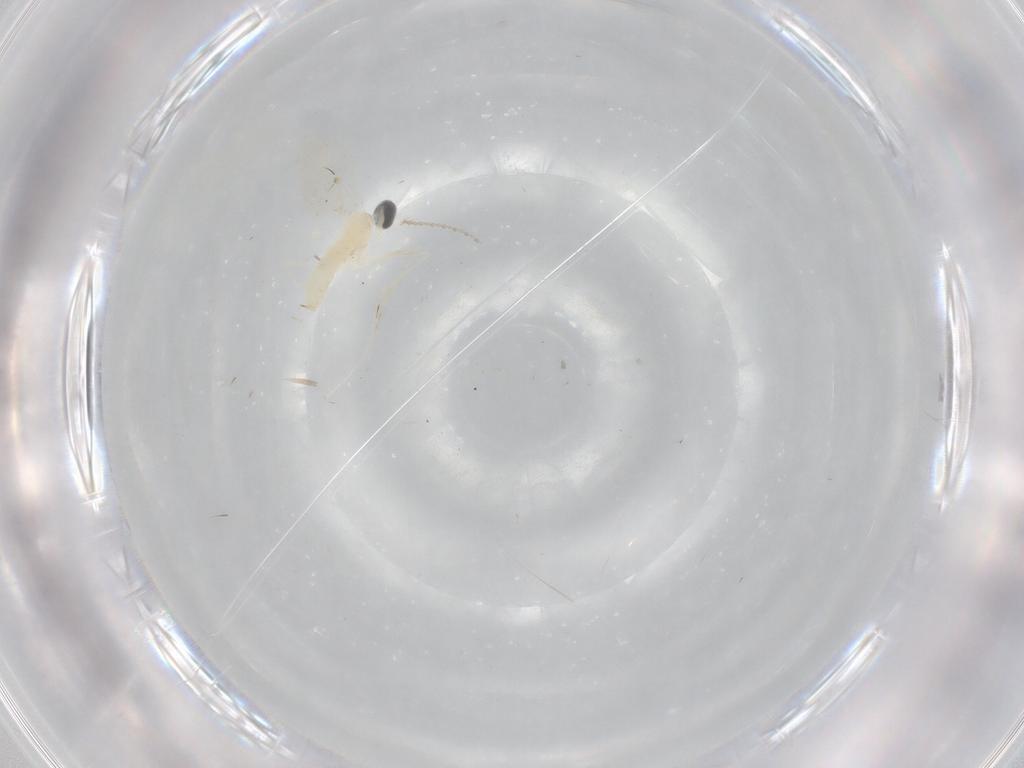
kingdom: Animalia
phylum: Arthropoda
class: Insecta
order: Diptera
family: Cecidomyiidae
